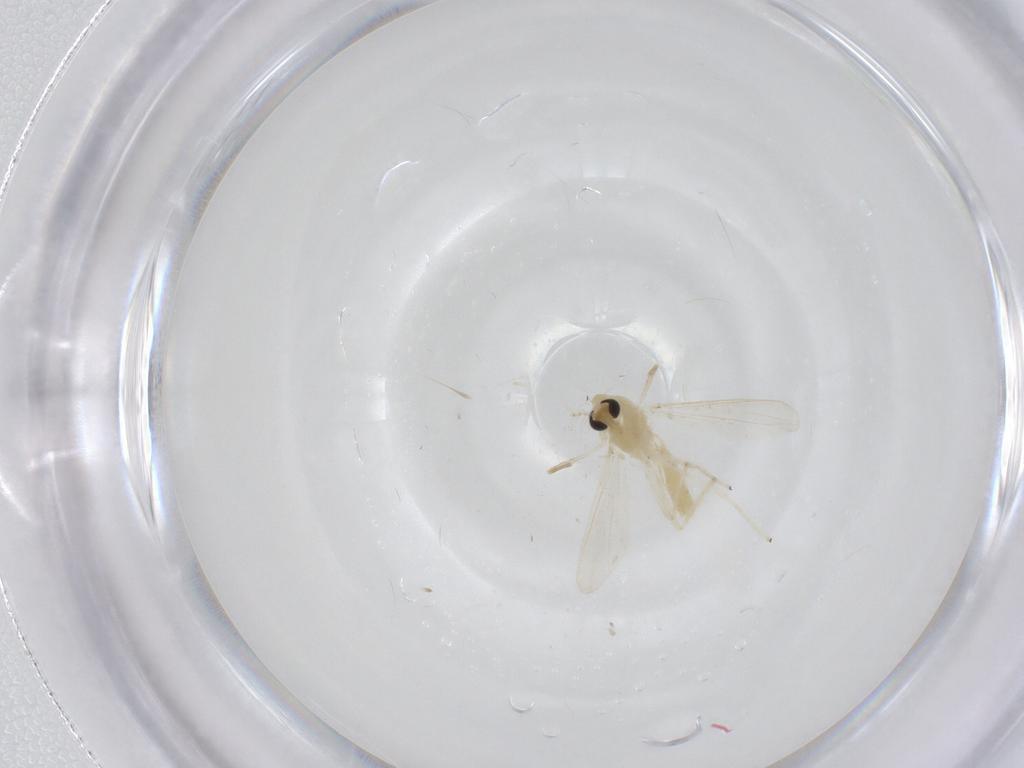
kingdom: Animalia
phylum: Arthropoda
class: Insecta
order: Diptera
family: Chironomidae
